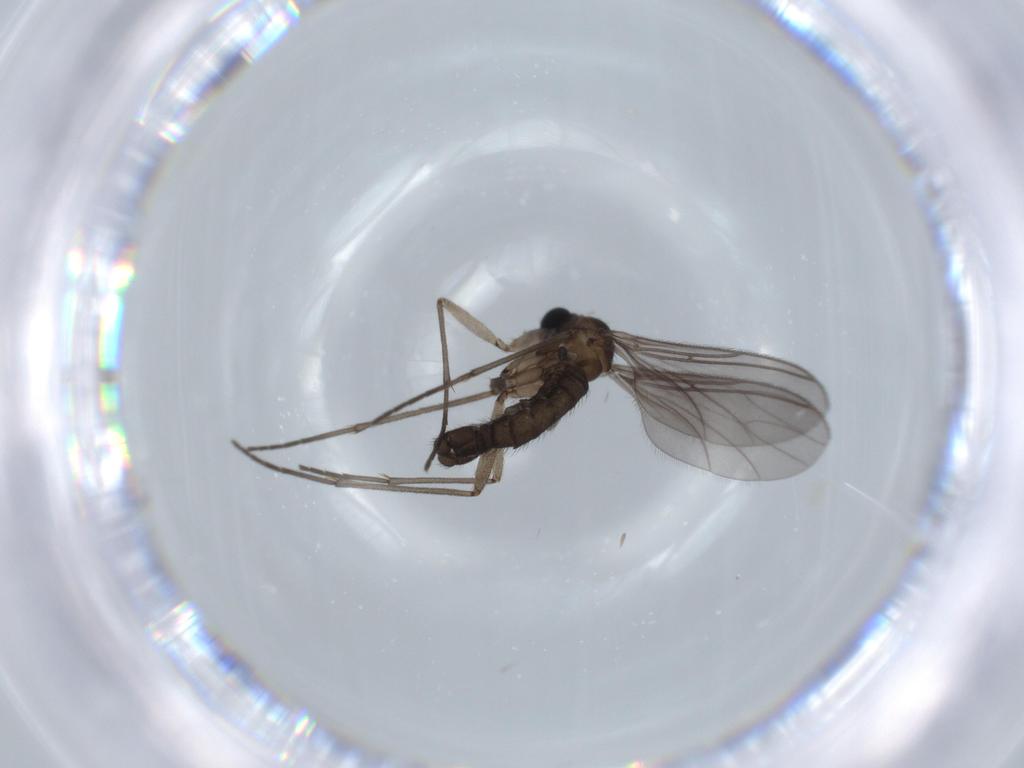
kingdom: Animalia
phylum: Arthropoda
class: Insecta
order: Diptera
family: Sciaridae
